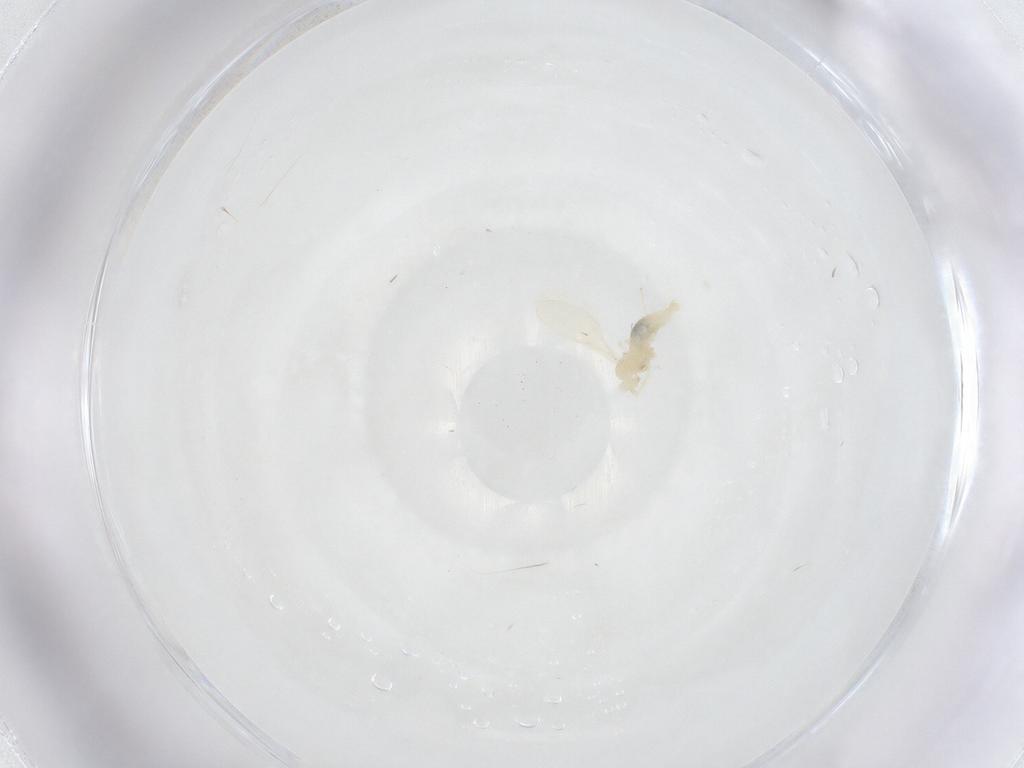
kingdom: Animalia
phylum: Arthropoda
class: Insecta
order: Diptera
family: Cecidomyiidae
